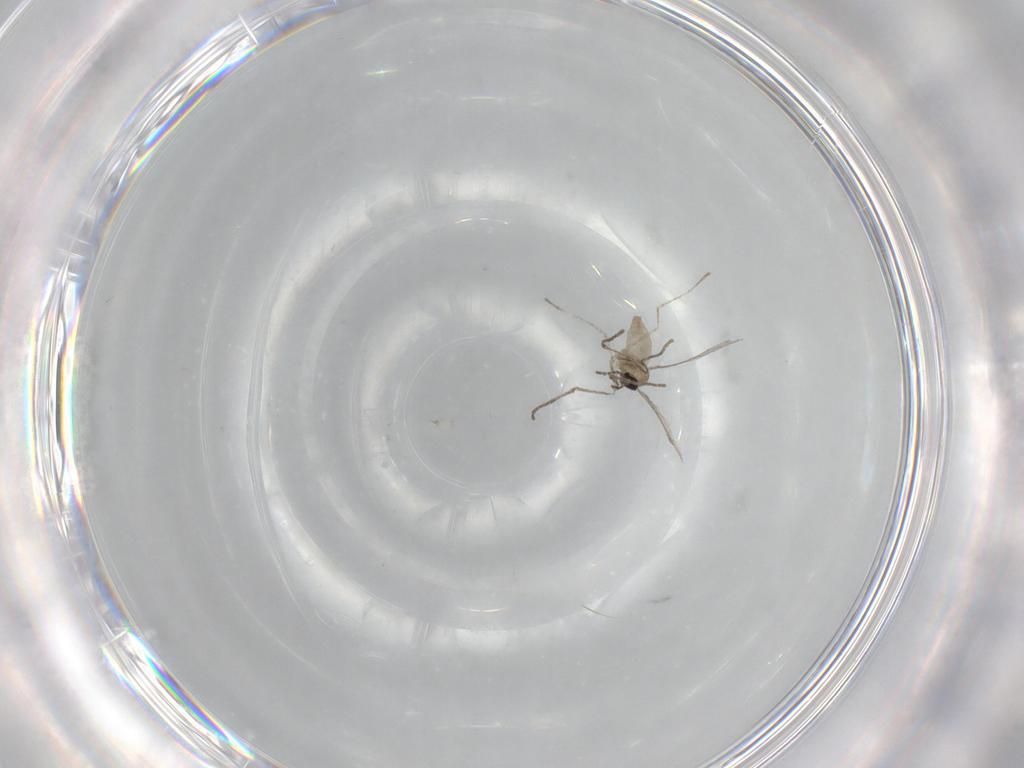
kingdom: Animalia
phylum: Arthropoda
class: Insecta
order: Diptera
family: Cecidomyiidae
